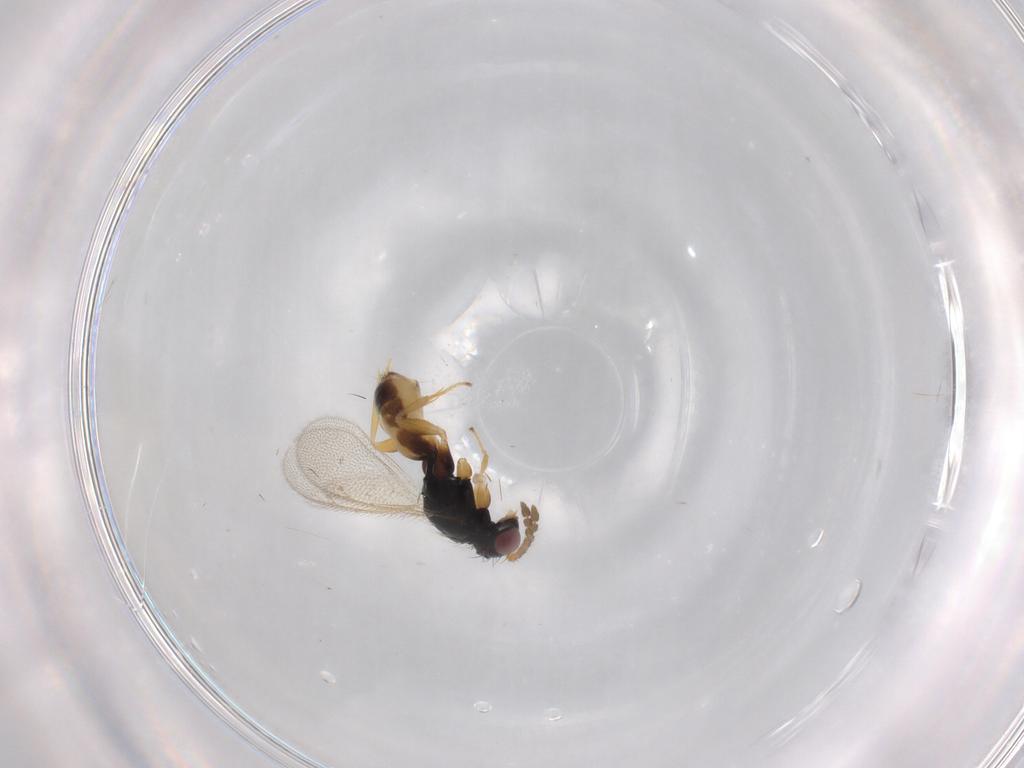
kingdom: Animalia
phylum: Arthropoda
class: Insecta
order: Hymenoptera
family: Eulophidae
